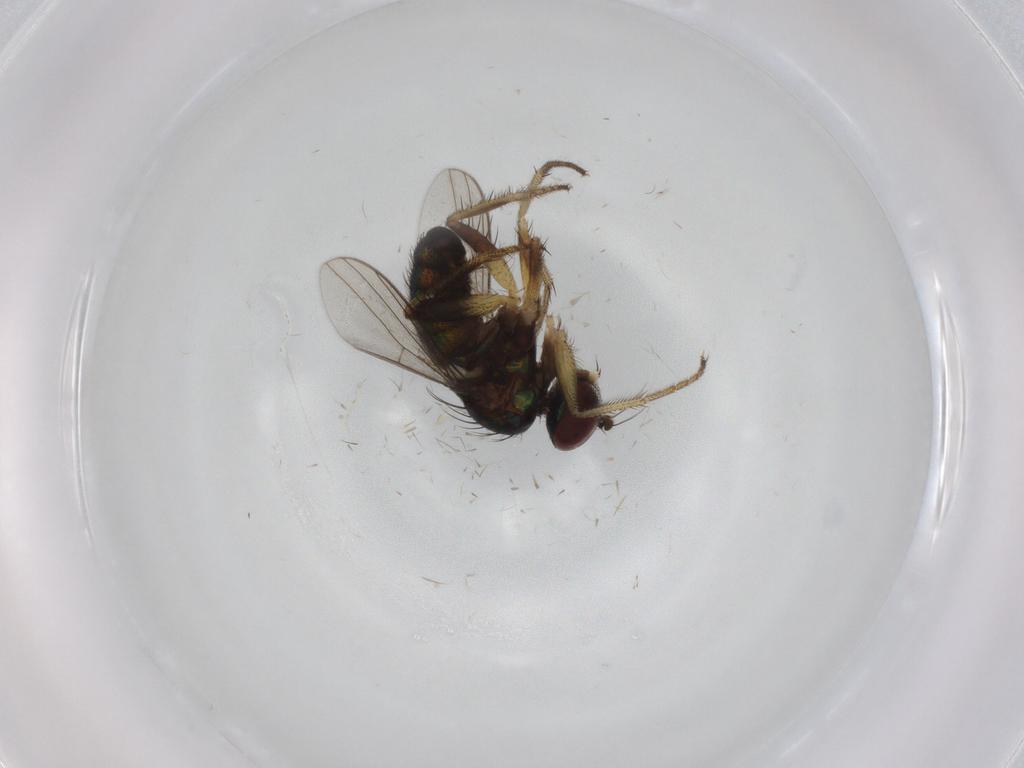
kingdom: Animalia
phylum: Arthropoda
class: Insecta
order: Diptera
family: Dolichopodidae
